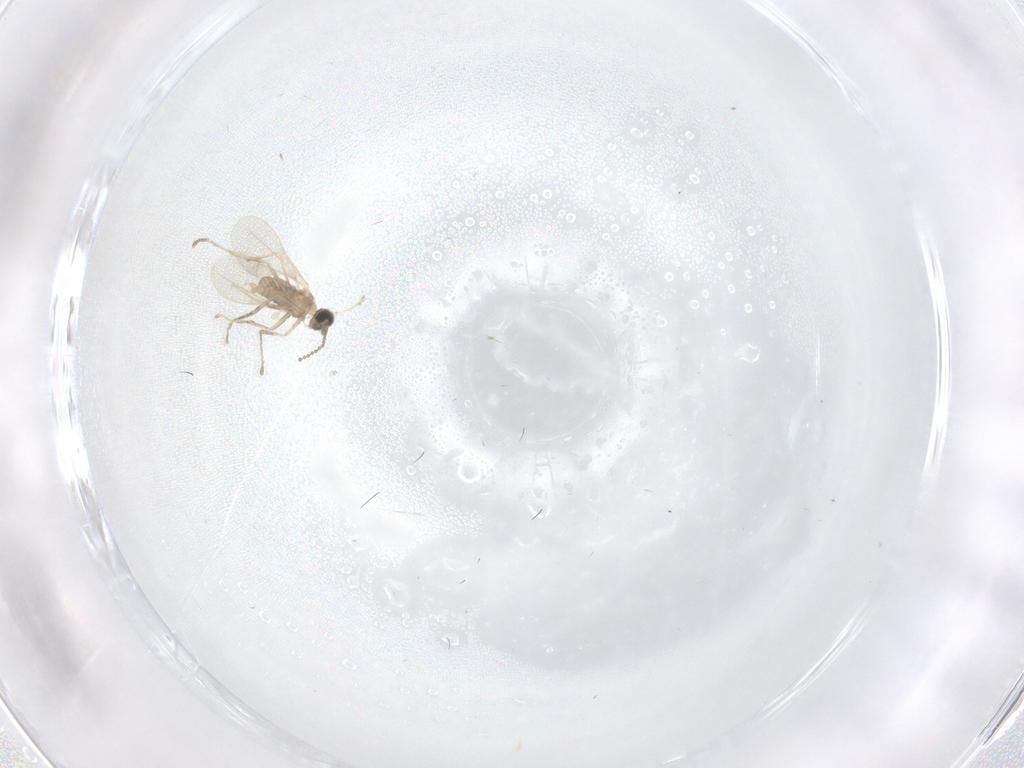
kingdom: Animalia
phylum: Arthropoda
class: Insecta
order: Diptera
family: Cecidomyiidae
